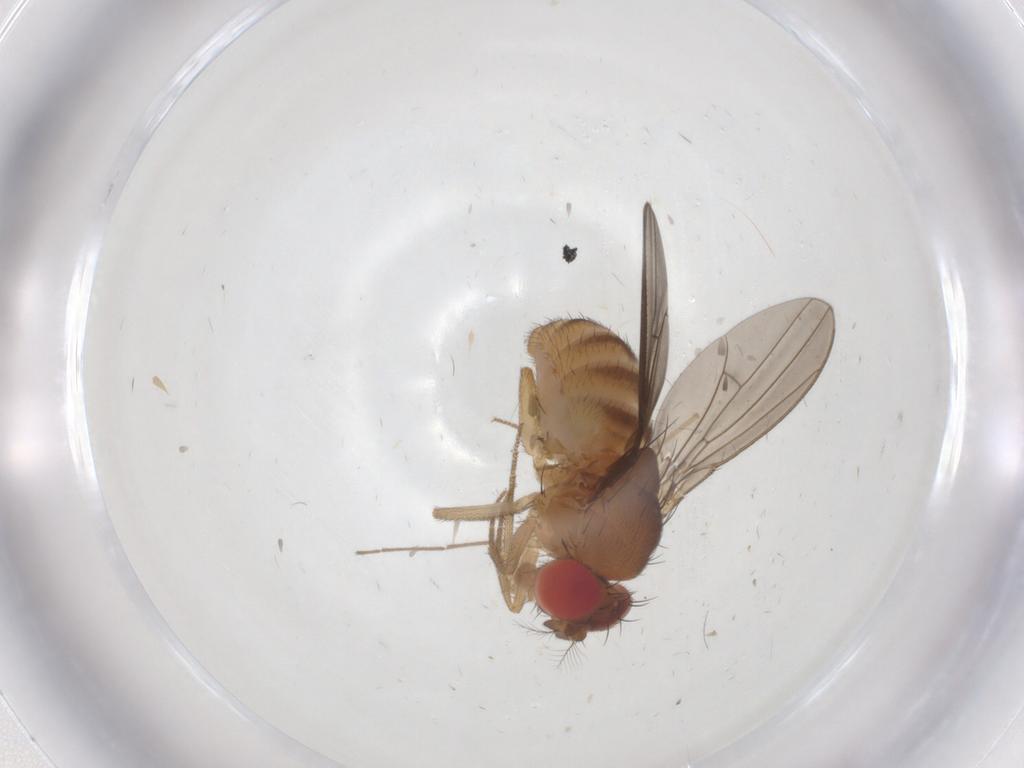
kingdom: Animalia
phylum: Arthropoda
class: Insecta
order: Diptera
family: Drosophilidae
